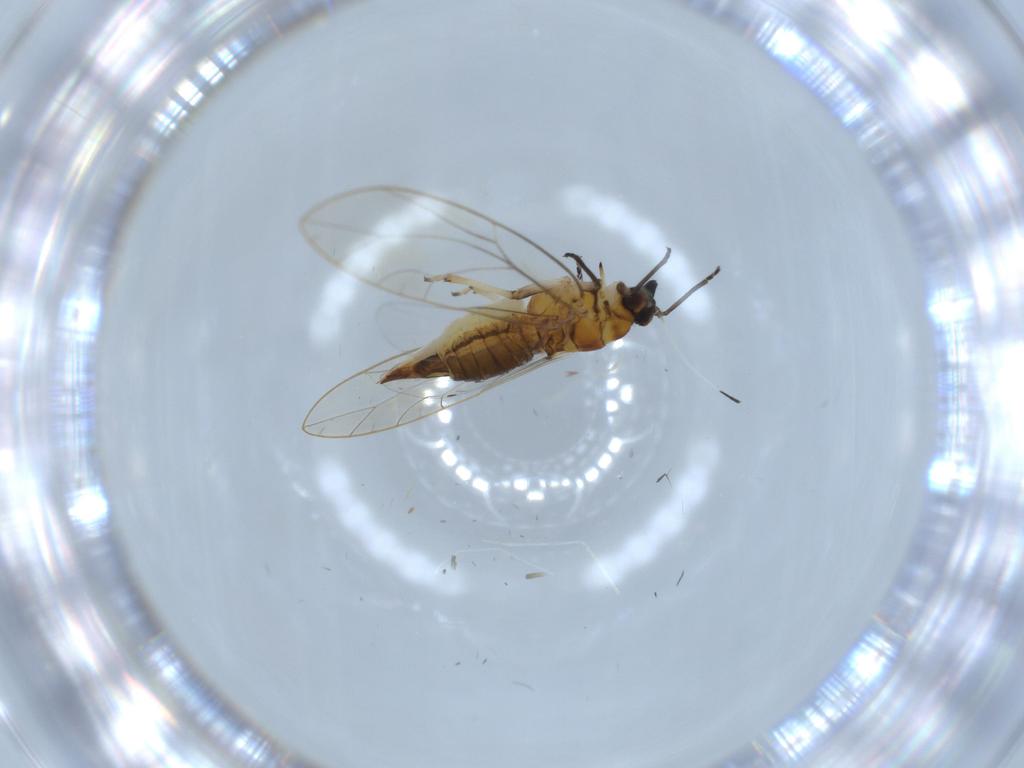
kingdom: Animalia
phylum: Arthropoda
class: Insecta
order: Hemiptera
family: Triozidae
